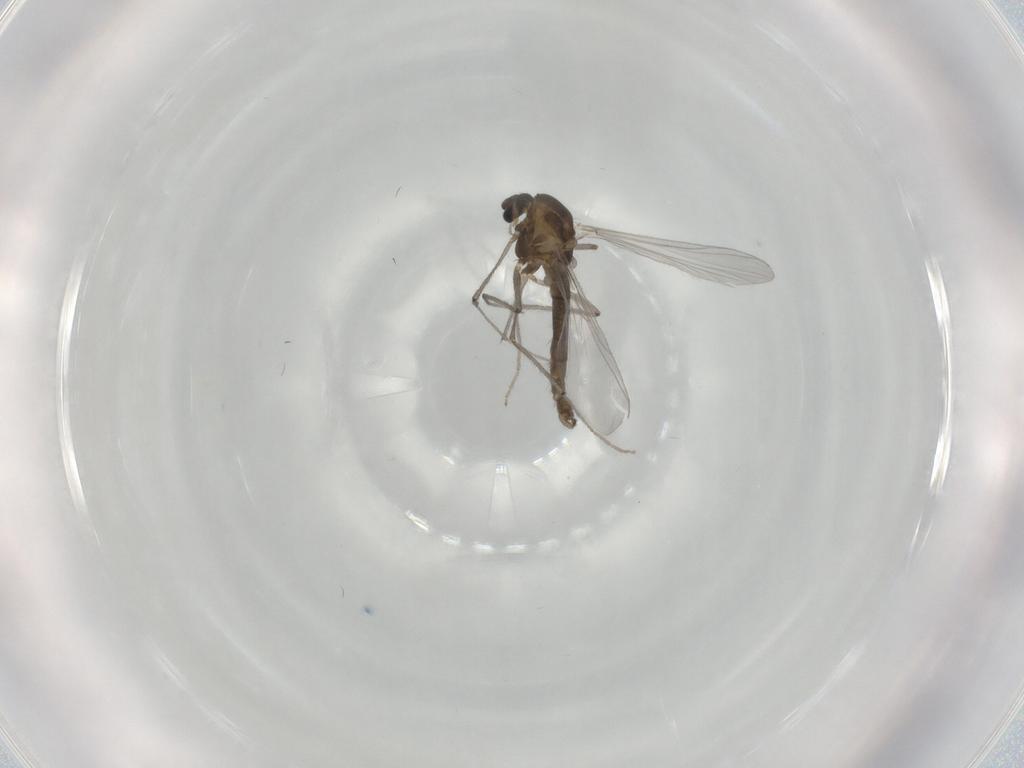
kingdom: Animalia
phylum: Arthropoda
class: Insecta
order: Diptera
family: Chironomidae
